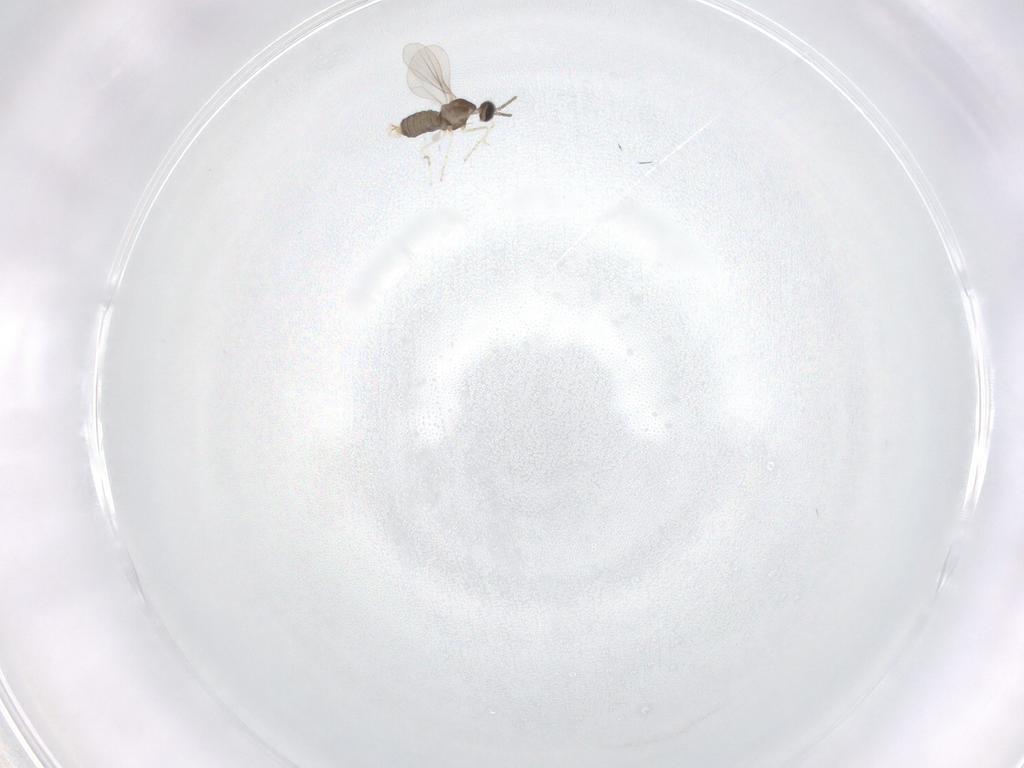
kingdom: Animalia
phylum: Arthropoda
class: Insecta
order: Diptera
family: Cecidomyiidae
